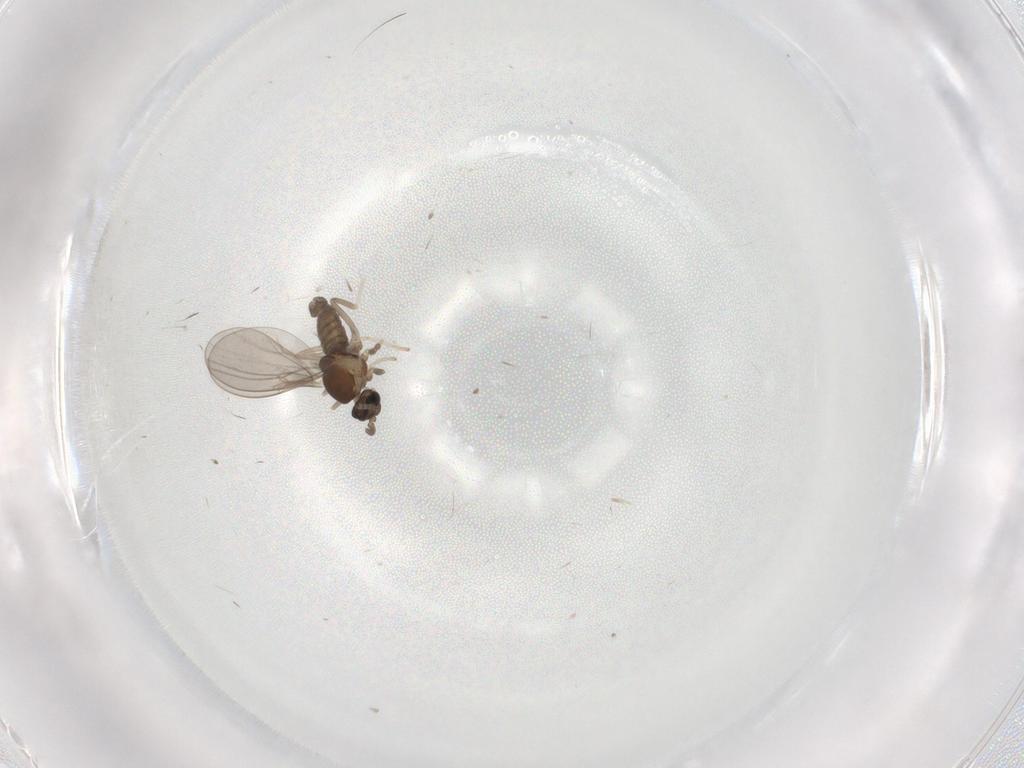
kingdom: Animalia
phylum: Arthropoda
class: Insecta
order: Diptera
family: Cecidomyiidae
